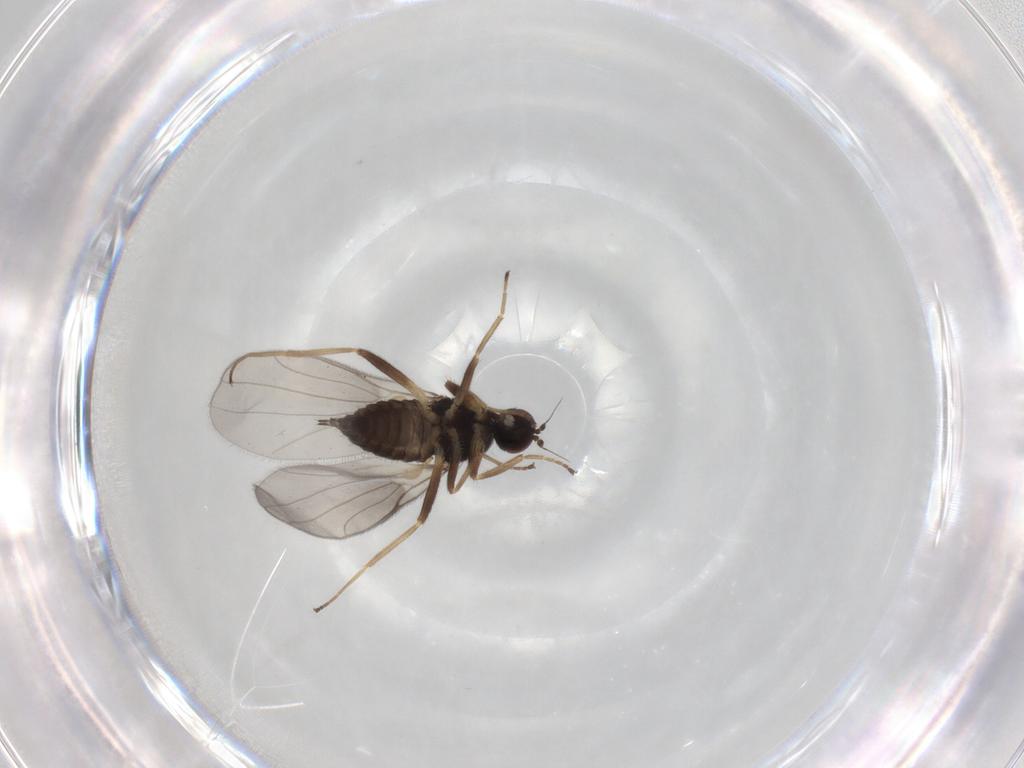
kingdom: Animalia
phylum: Arthropoda
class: Insecta
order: Diptera
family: Hybotidae
